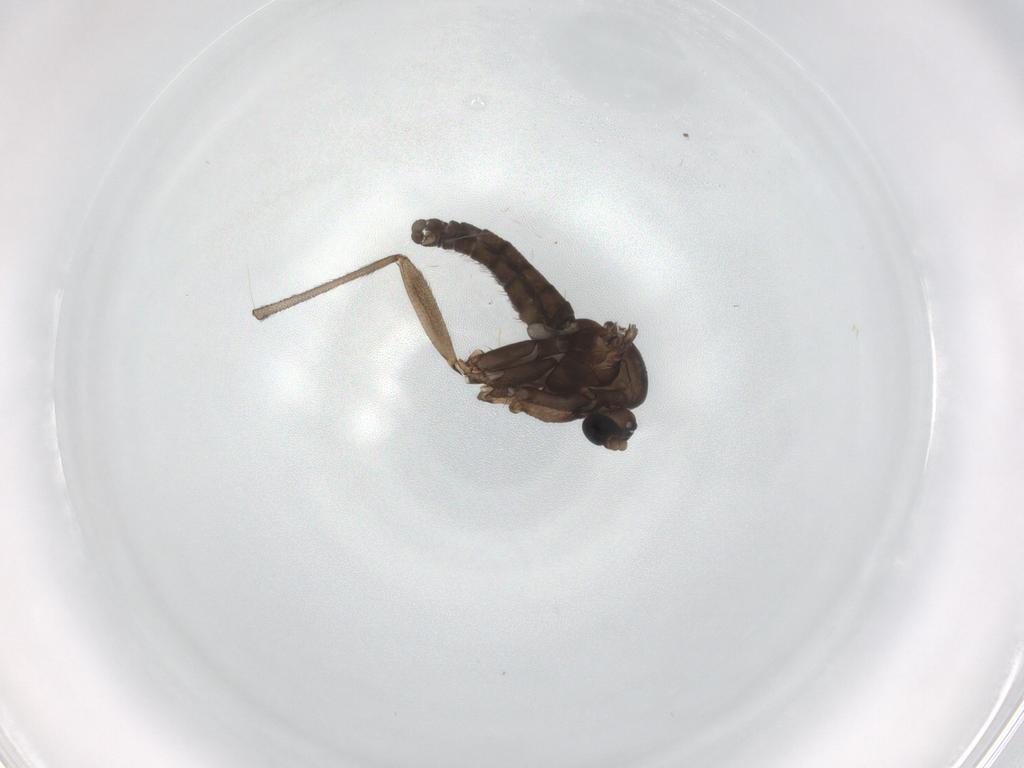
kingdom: Animalia
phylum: Arthropoda
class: Insecta
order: Diptera
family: Sciaridae
